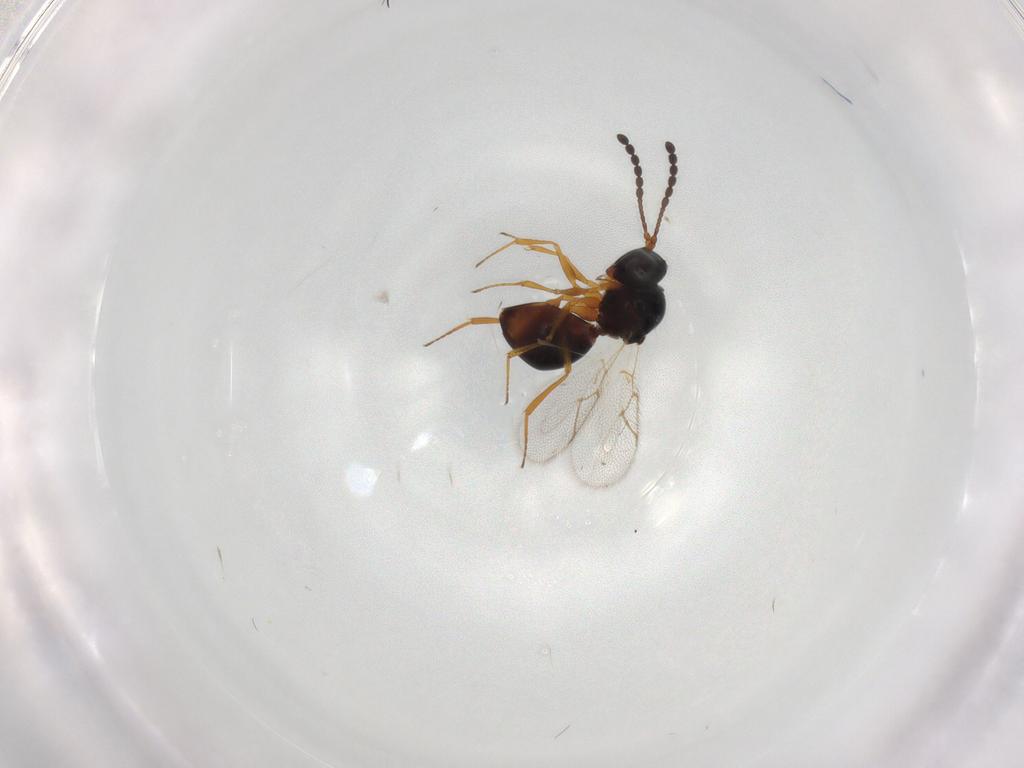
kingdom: Animalia
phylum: Arthropoda
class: Insecta
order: Hymenoptera
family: Figitidae
